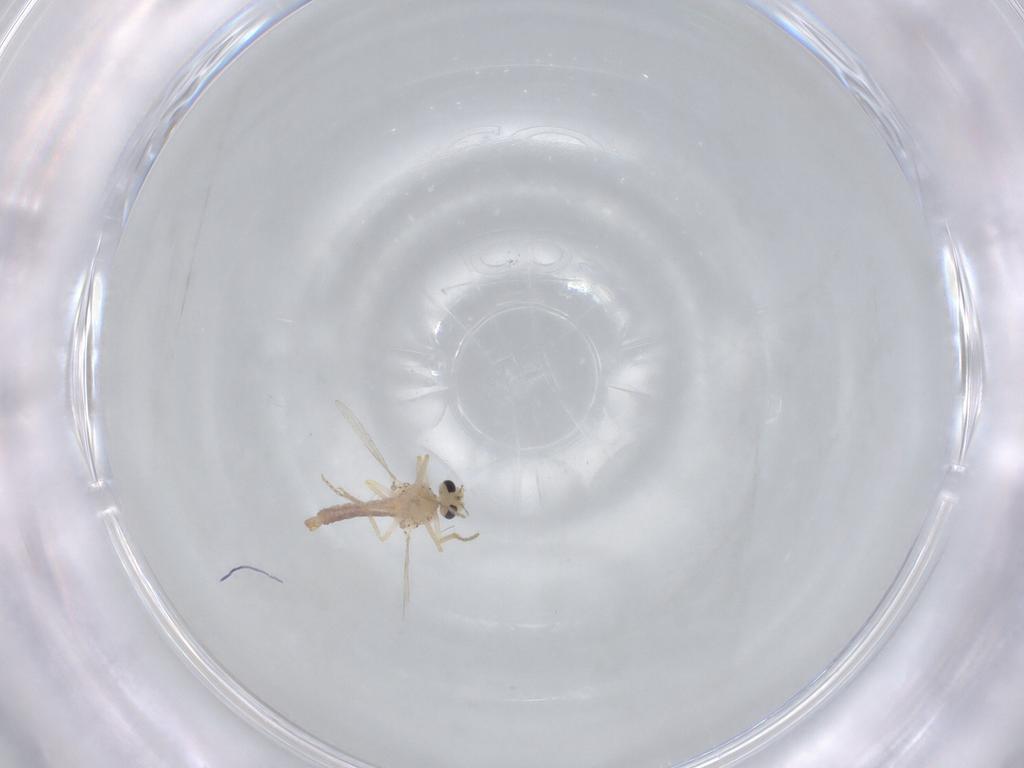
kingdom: Animalia
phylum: Arthropoda
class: Insecta
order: Diptera
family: Ceratopogonidae
